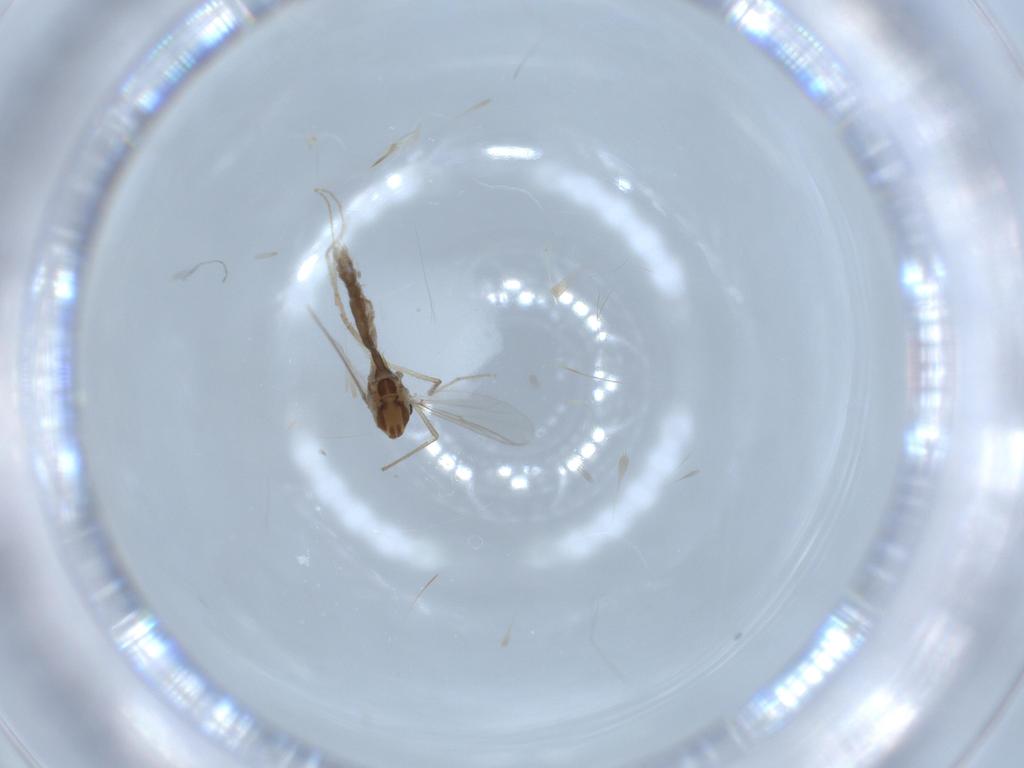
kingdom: Animalia
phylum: Arthropoda
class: Insecta
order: Diptera
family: Chironomidae
